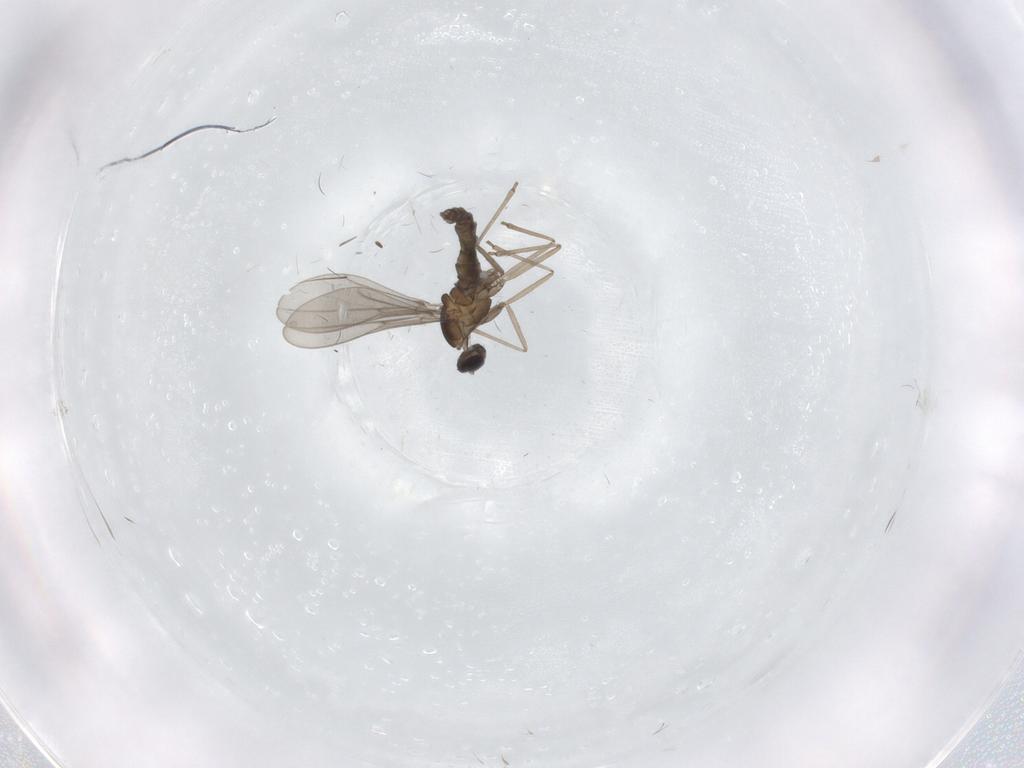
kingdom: Animalia
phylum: Arthropoda
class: Insecta
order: Diptera
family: Cecidomyiidae
